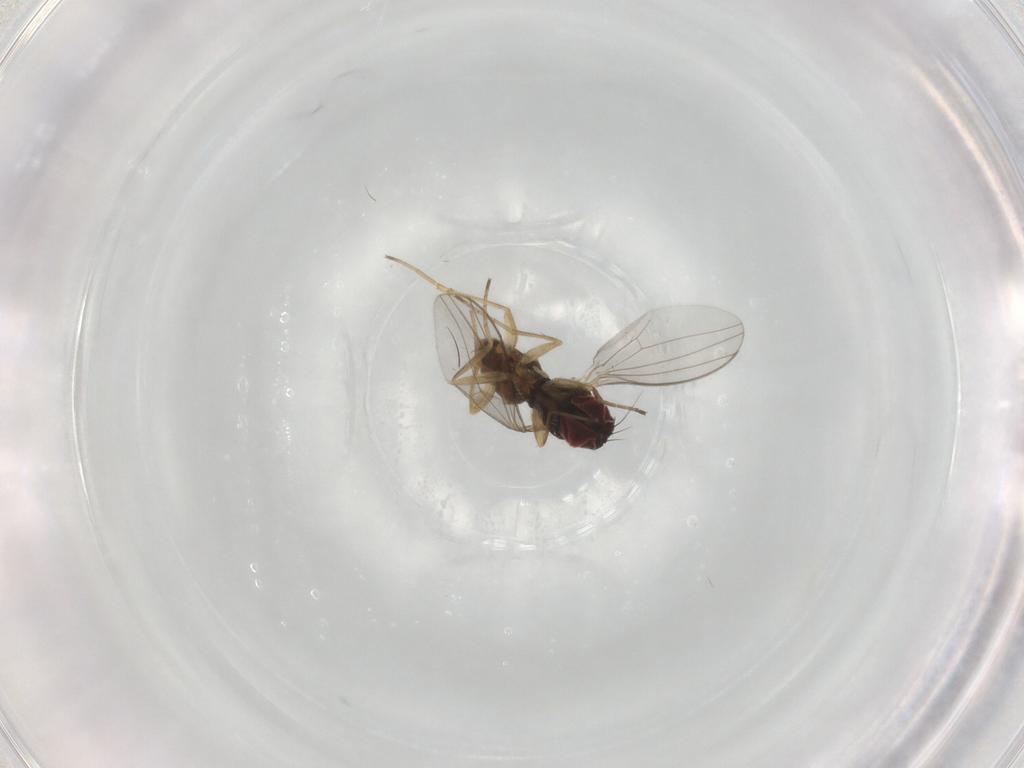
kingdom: Animalia
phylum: Arthropoda
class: Insecta
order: Diptera
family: Dolichopodidae
